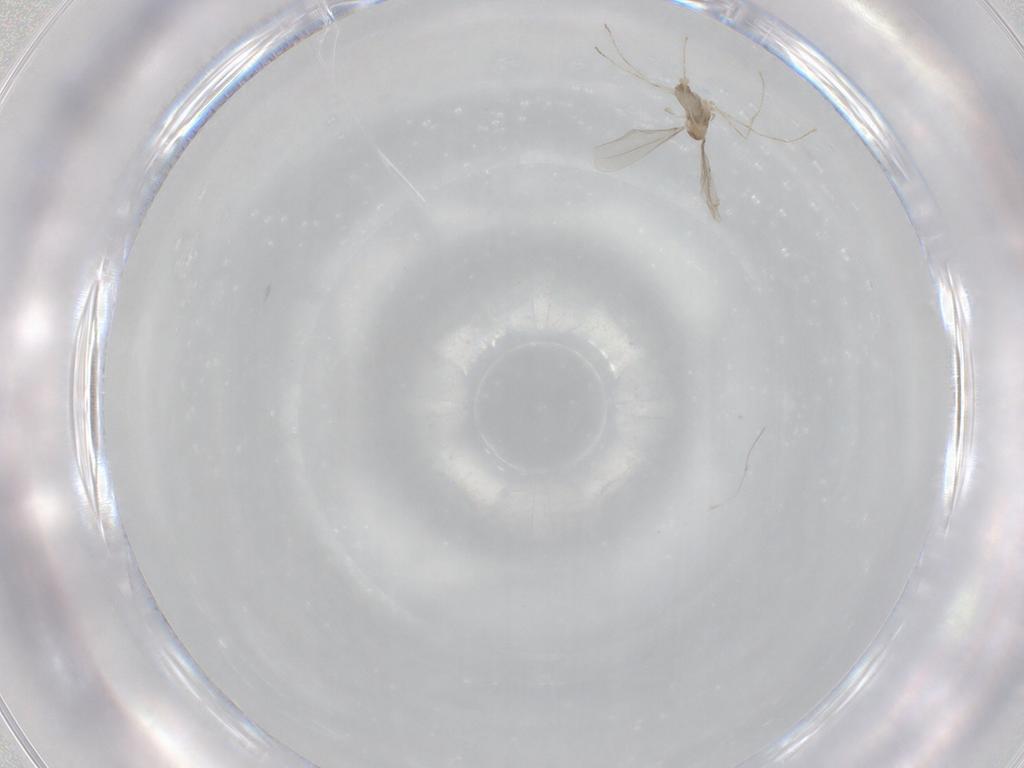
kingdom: Animalia
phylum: Arthropoda
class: Insecta
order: Diptera
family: Cecidomyiidae
